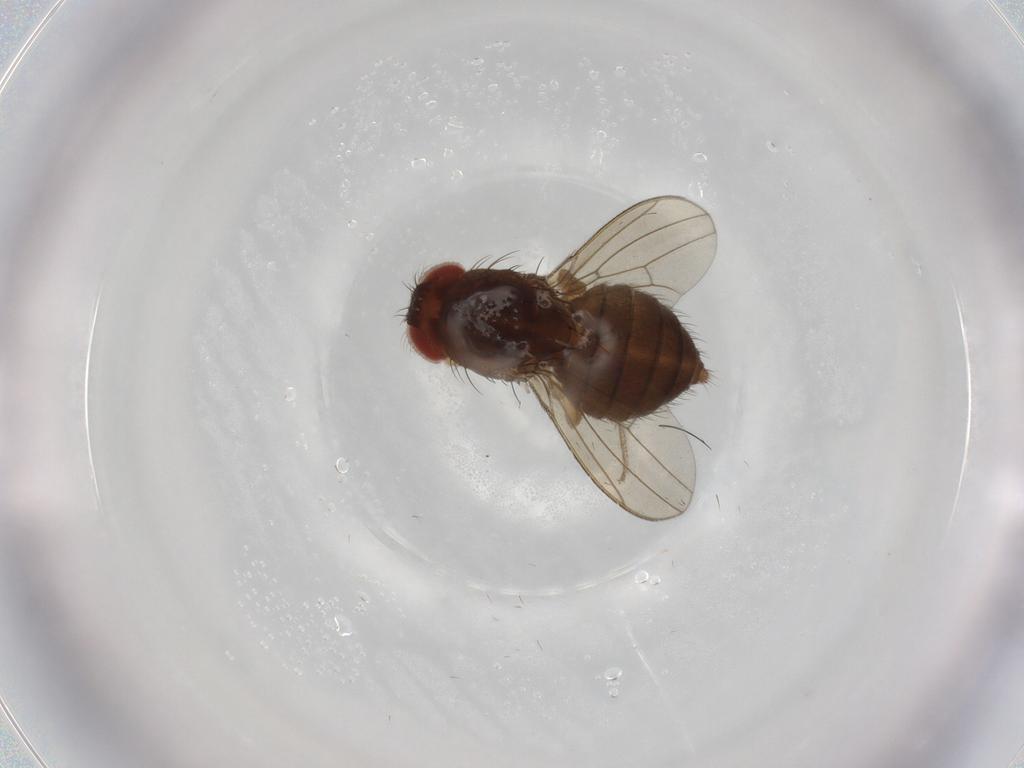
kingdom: Animalia
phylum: Arthropoda
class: Insecta
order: Diptera
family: Drosophilidae
